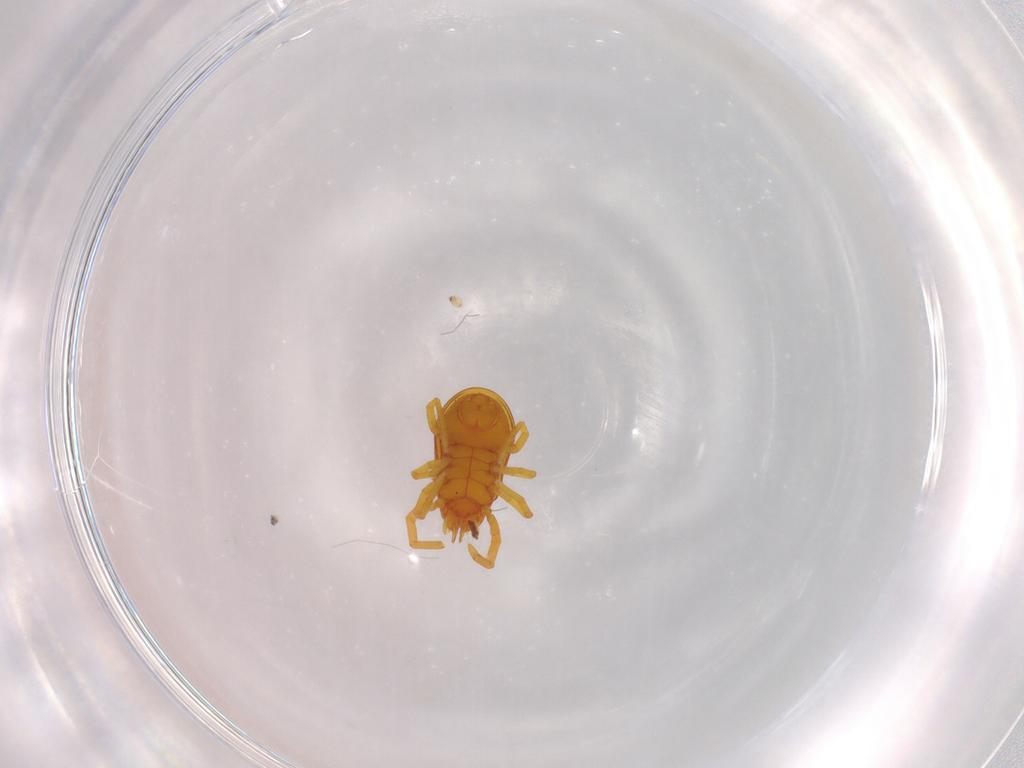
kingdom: Animalia
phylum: Arthropoda
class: Arachnida
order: Trombidiformes
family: Labidostommidae
